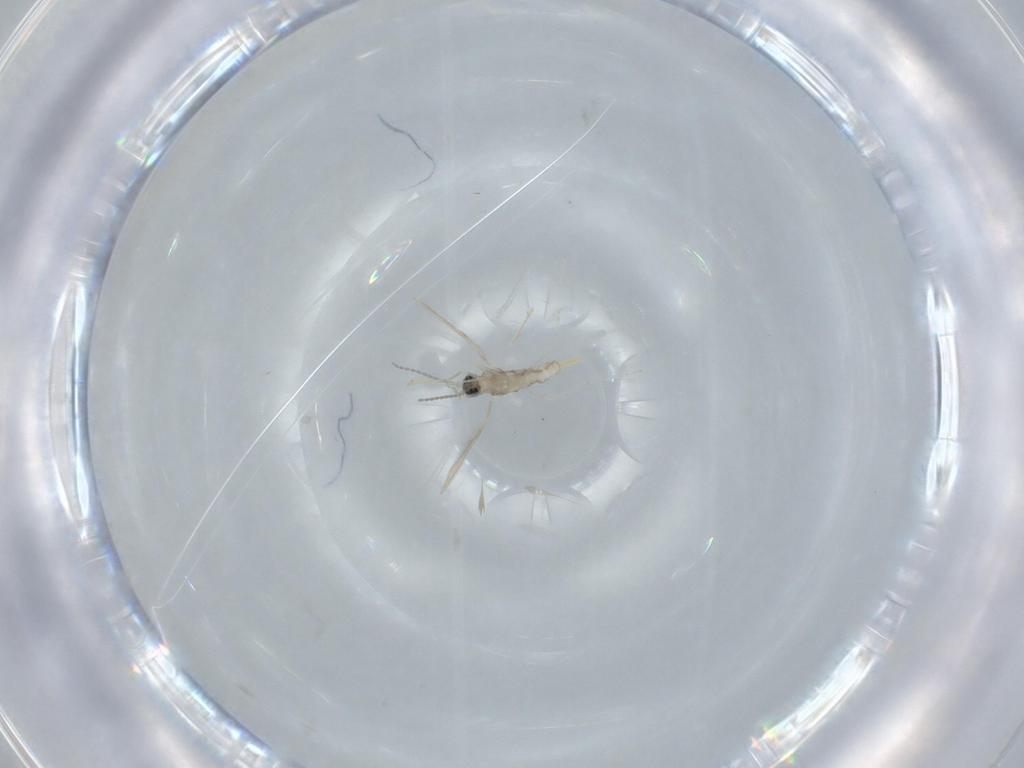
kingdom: Animalia
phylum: Arthropoda
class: Insecta
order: Diptera
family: Cecidomyiidae
